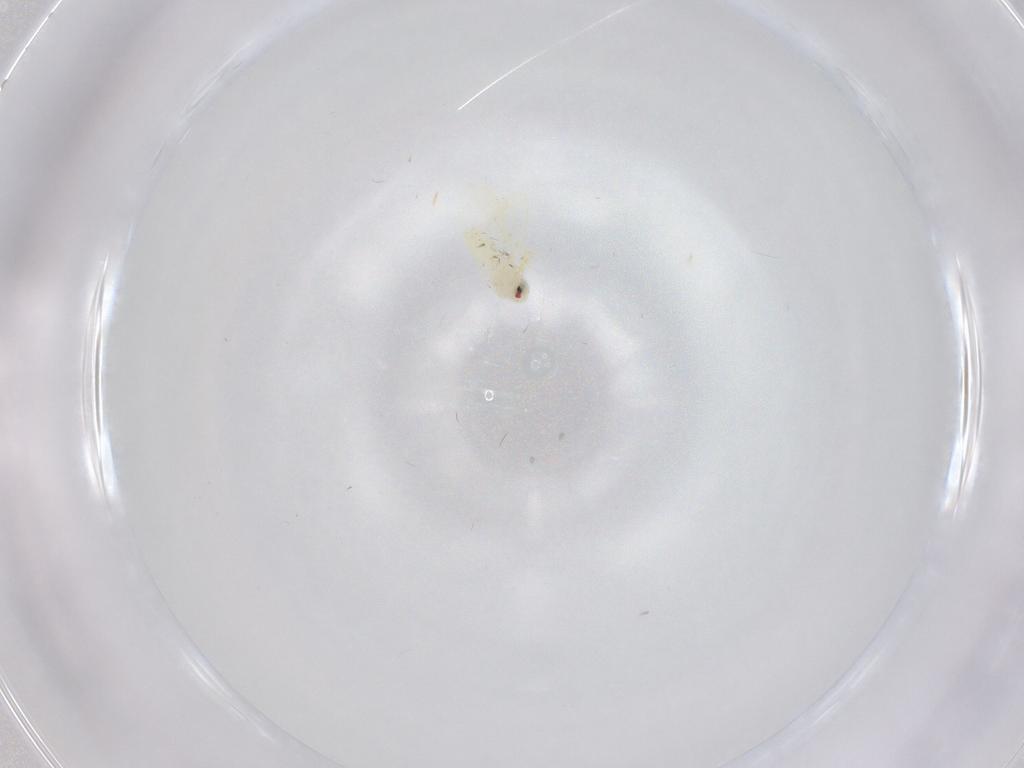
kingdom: Animalia
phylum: Arthropoda
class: Insecta
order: Hemiptera
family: Aleyrodidae
